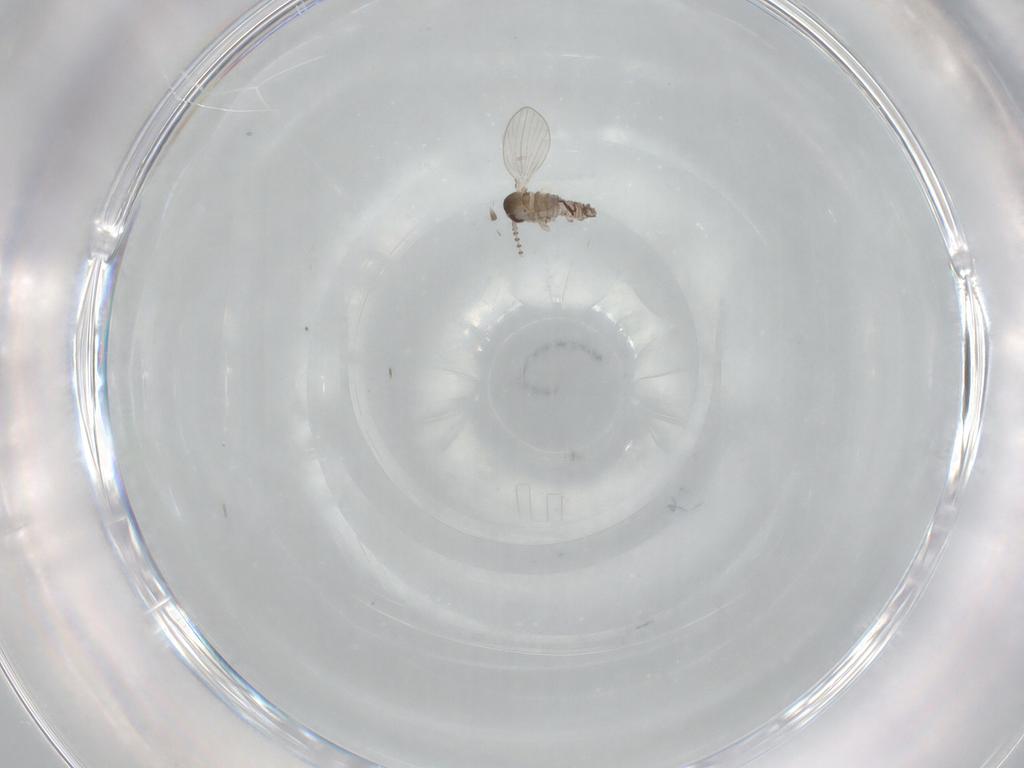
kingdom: Animalia
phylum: Arthropoda
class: Insecta
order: Diptera
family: Psychodidae
